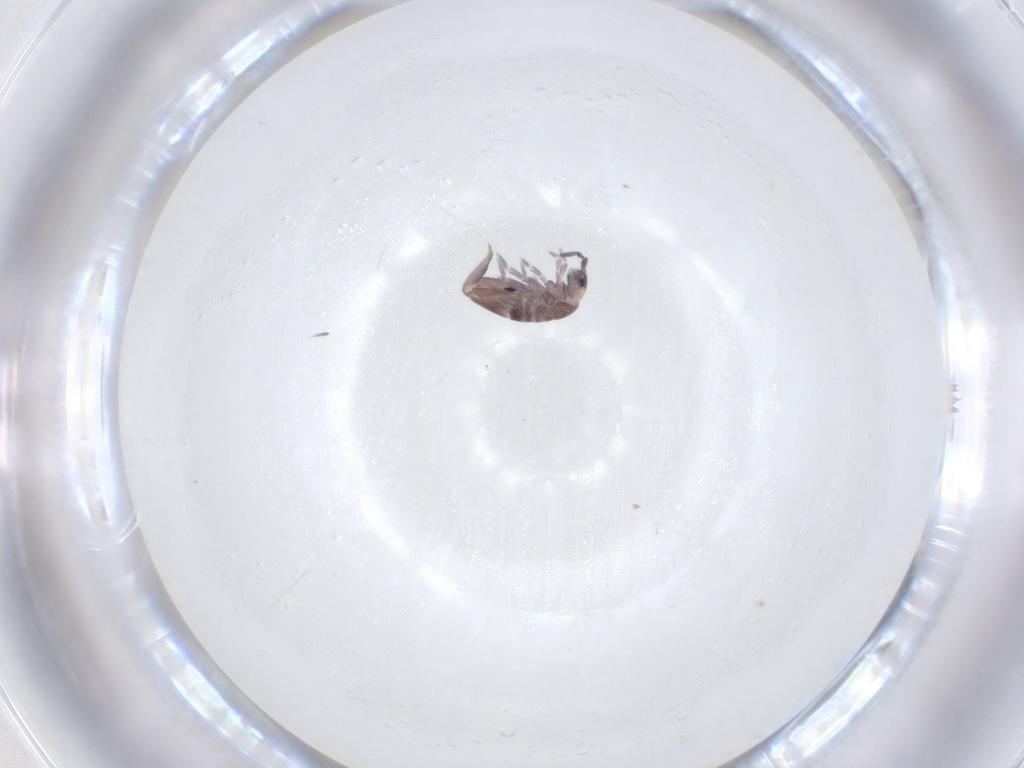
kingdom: Animalia
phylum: Arthropoda
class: Collembola
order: Entomobryomorpha
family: Entomobryidae
